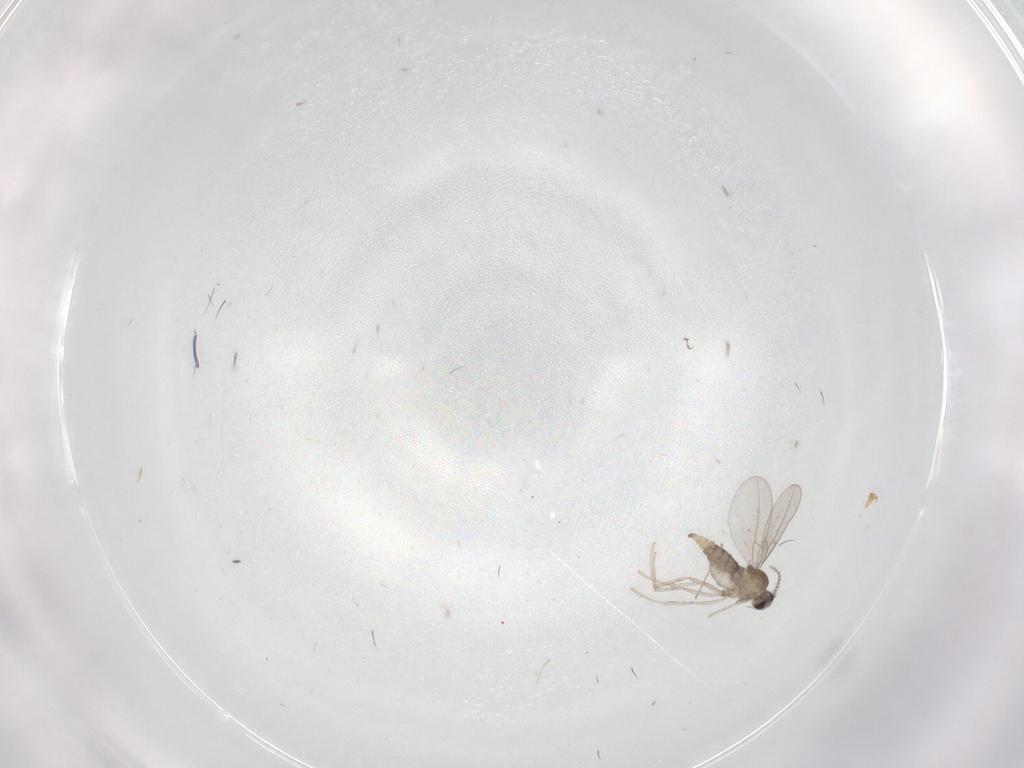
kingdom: Animalia
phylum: Arthropoda
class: Insecta
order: Diptera
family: Sciaridae
